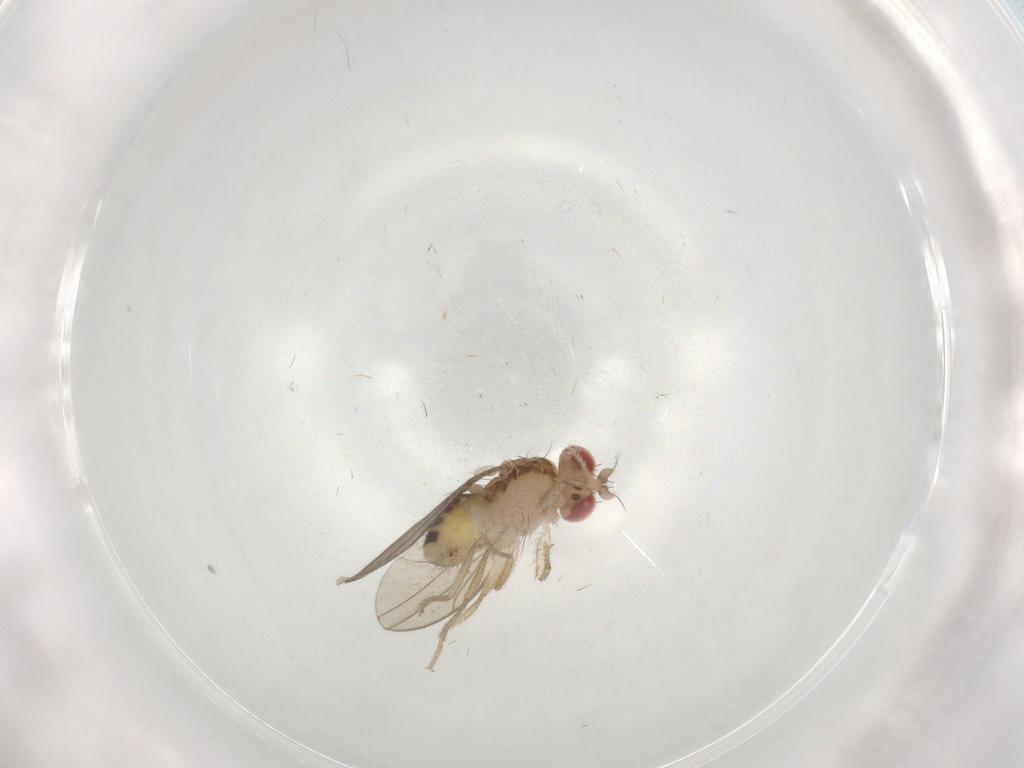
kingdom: Animalia
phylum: Arthropoda
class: Insecta
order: Diptera
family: Drosophilidae
